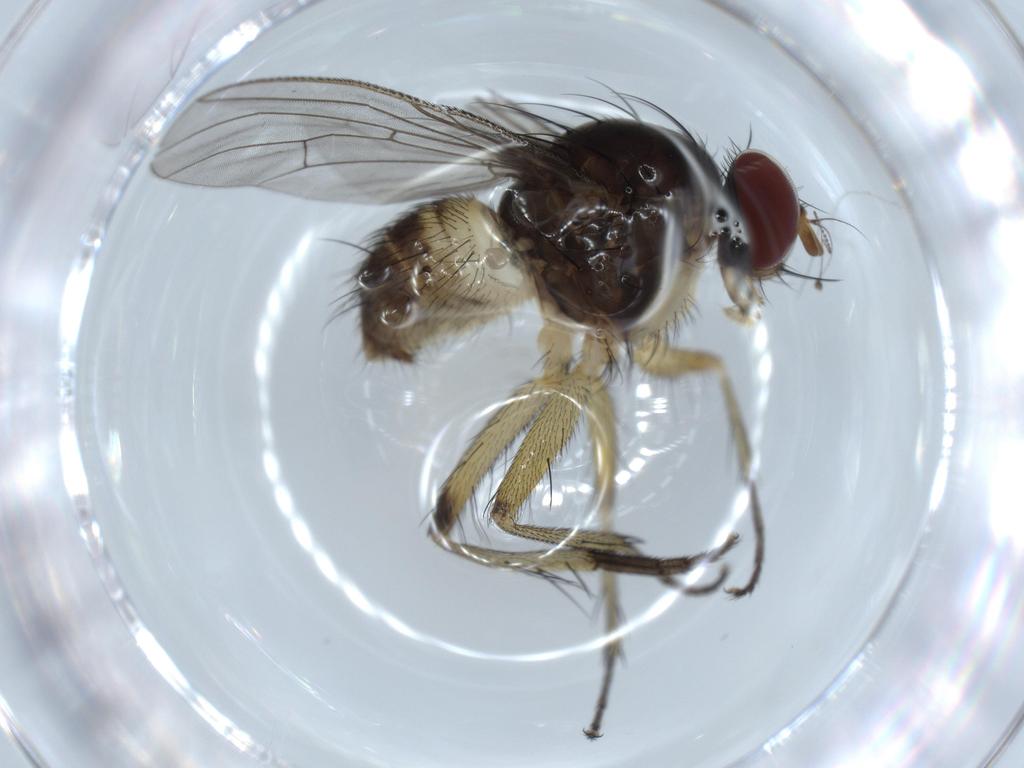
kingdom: Animalia
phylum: Arthropoda
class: Insecta
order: Diptera
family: Psychodidae
